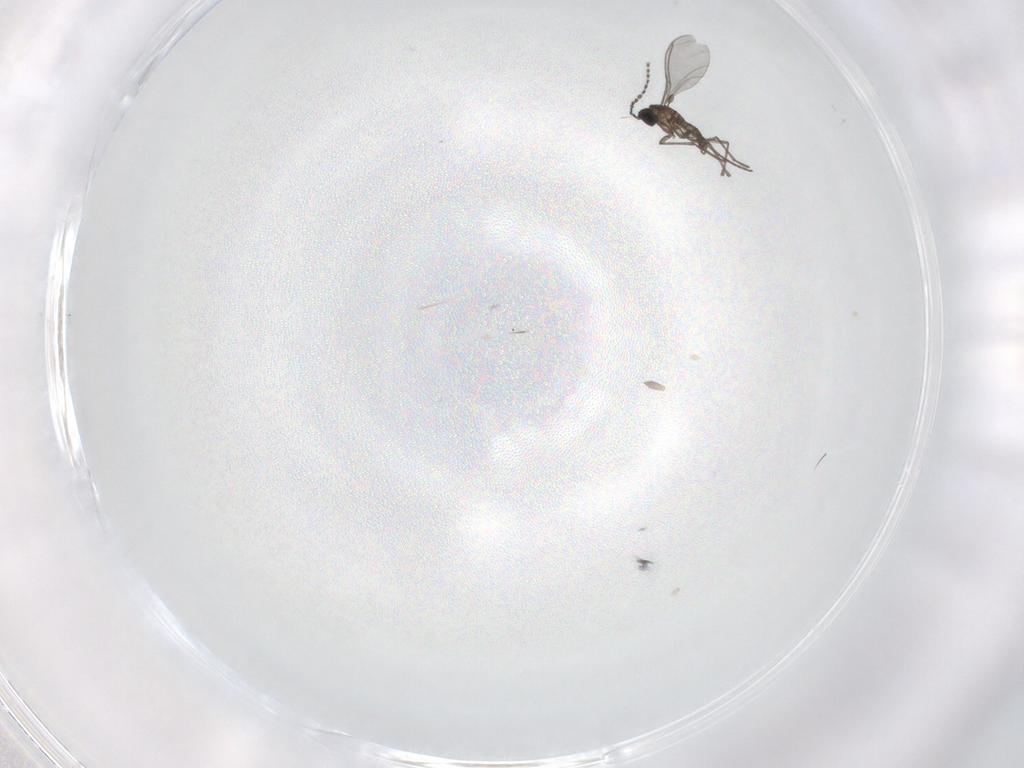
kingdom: Animalia
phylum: Arthropoda
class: Insecta
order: Diptera
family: Sciaridae
